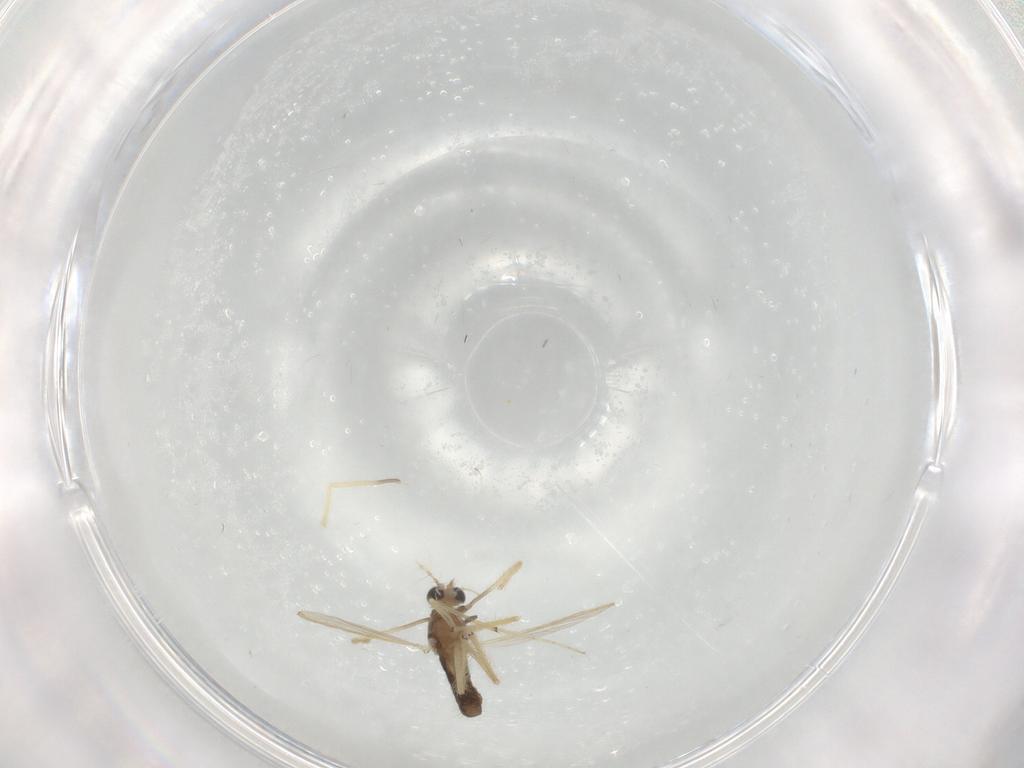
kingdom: Animalia
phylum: Arthropoda
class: Insecta
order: Diptera
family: Chironomidae
